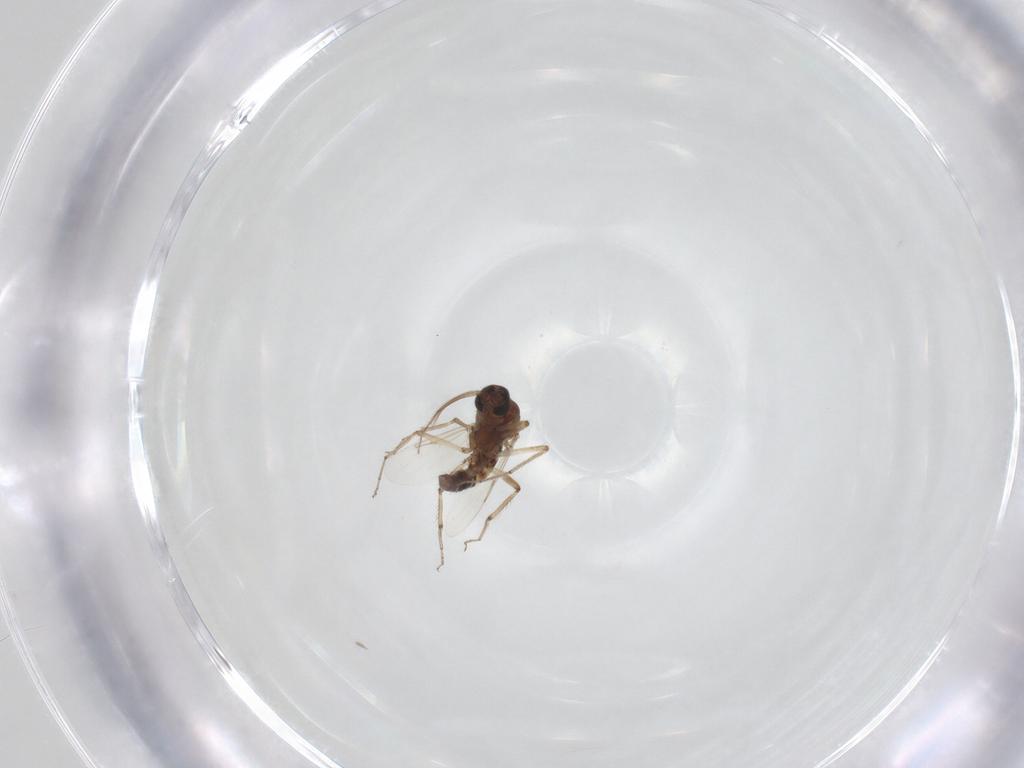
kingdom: Animalia
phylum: Arthropoda
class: Insecta
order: Diptera
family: Ceratopogonidae
